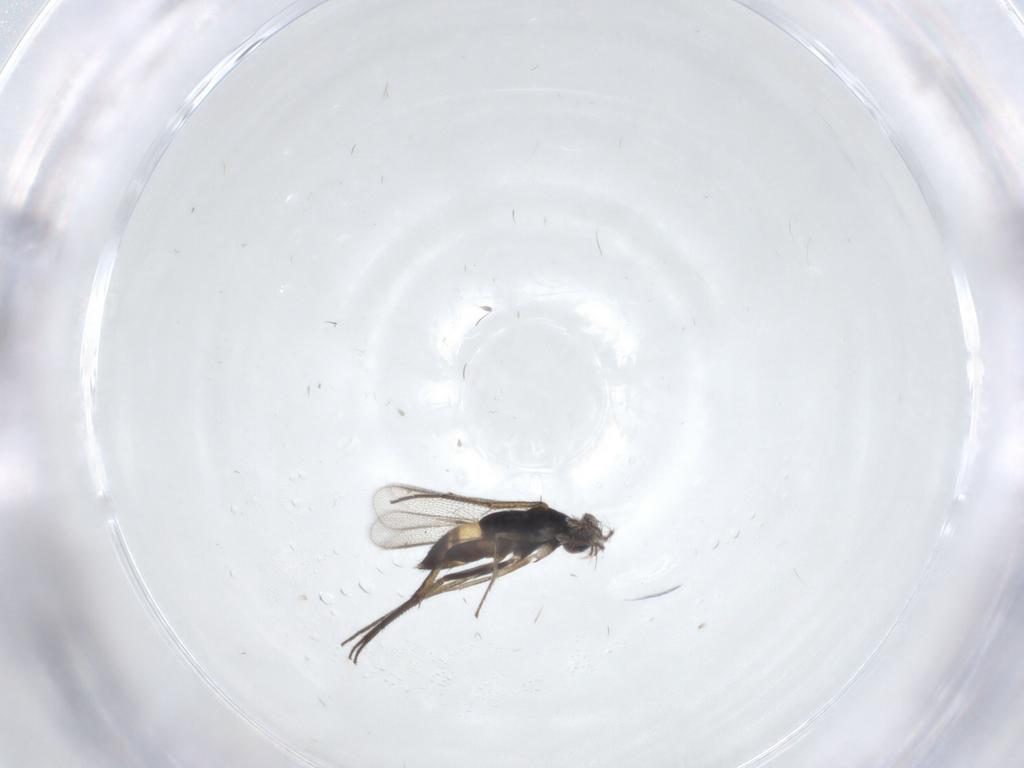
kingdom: Animalia
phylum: Arthropoda
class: Insecta
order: Hymenoptera
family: Eulophidae
